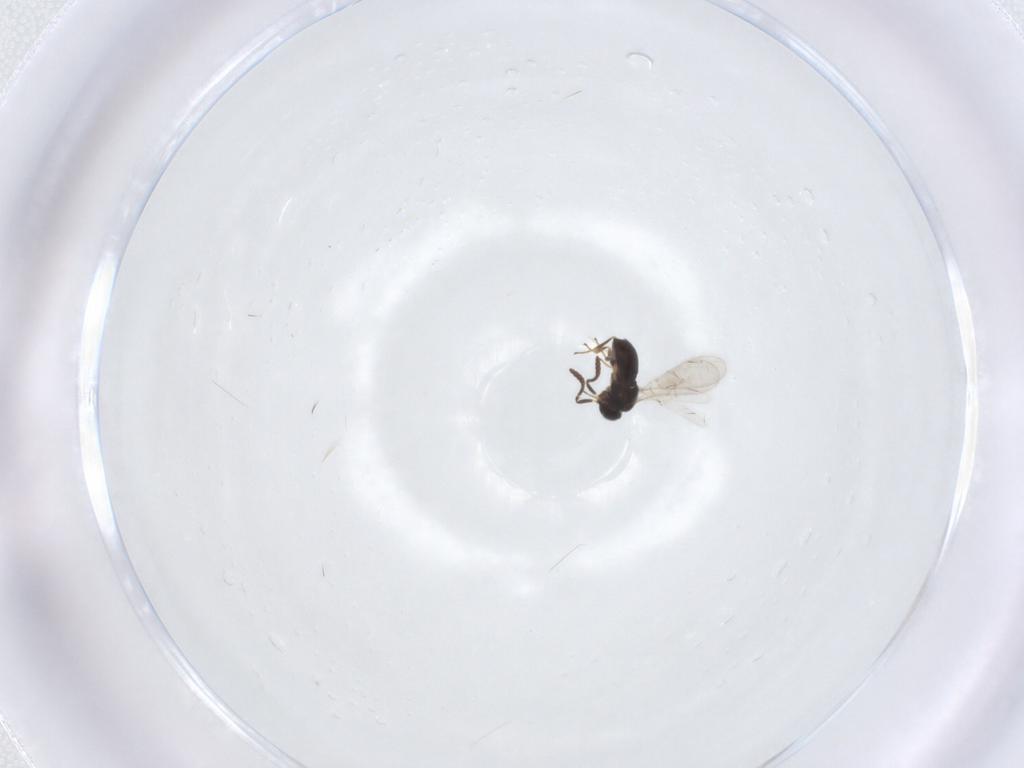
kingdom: Animalia
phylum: Arthropoda
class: Insecta
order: Hymenoptera
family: Scelionidae
